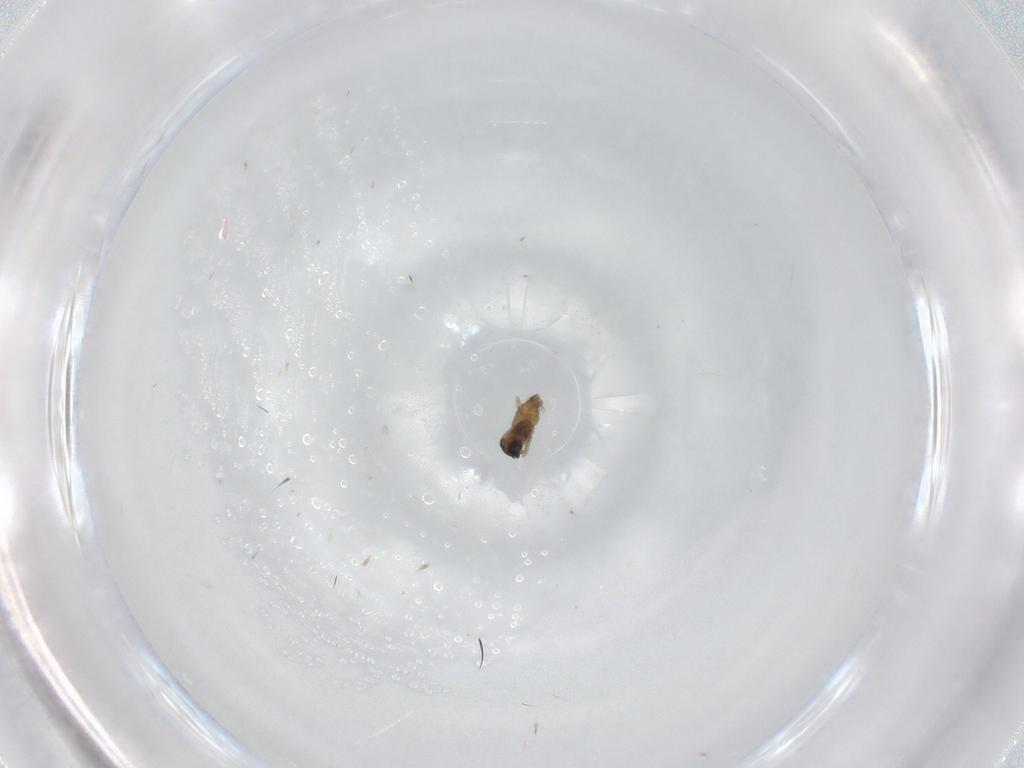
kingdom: Animalia
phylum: Arthropoda
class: Insecta
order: Diptera
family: Cecidomyiidae
